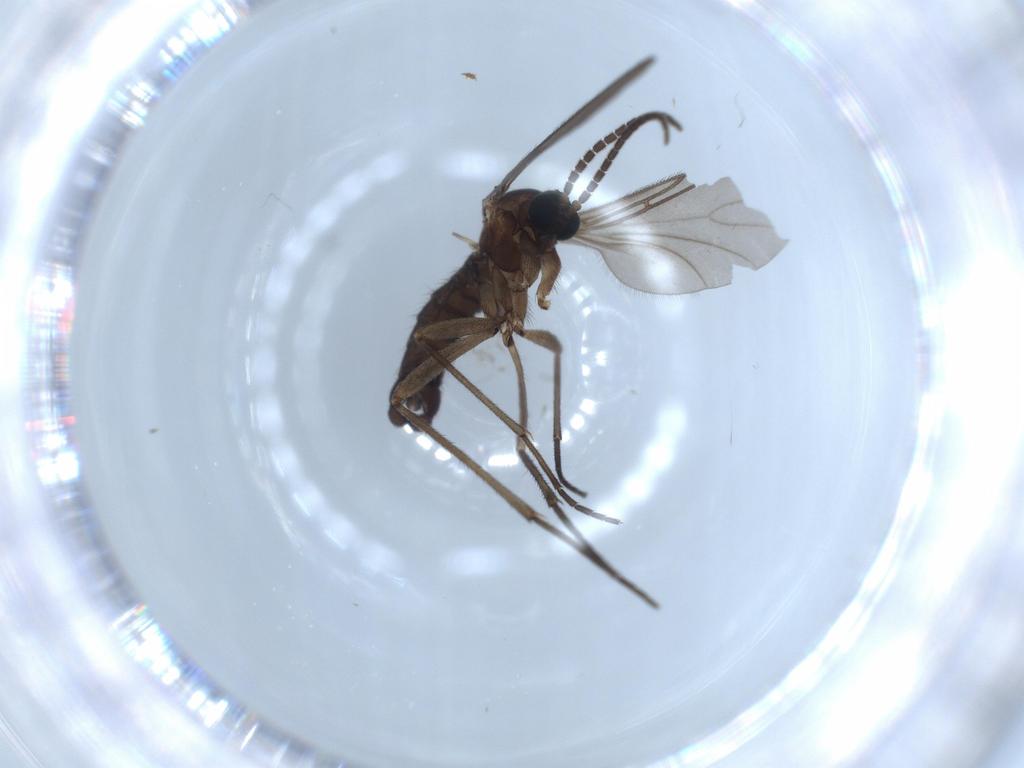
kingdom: Animalia
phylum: Arthropoda
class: Insecta
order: Diptera
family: Sciaridae
